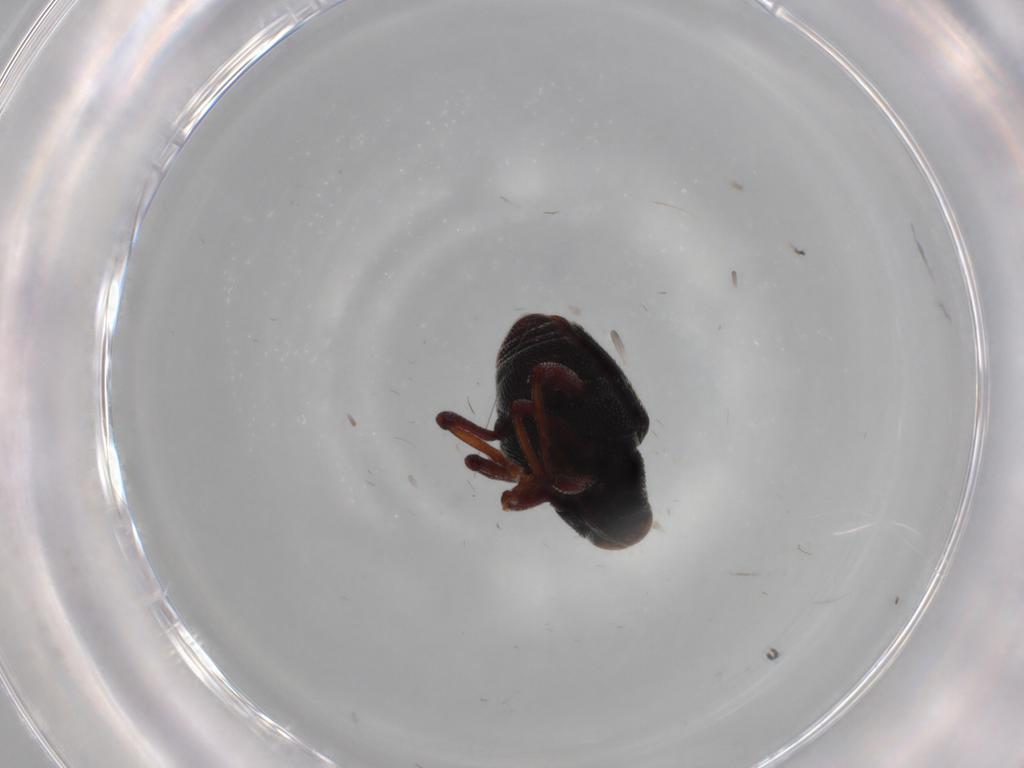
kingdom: Animalia
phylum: Arthropoda
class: Insecta
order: Coleoptera
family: Curculionidae
